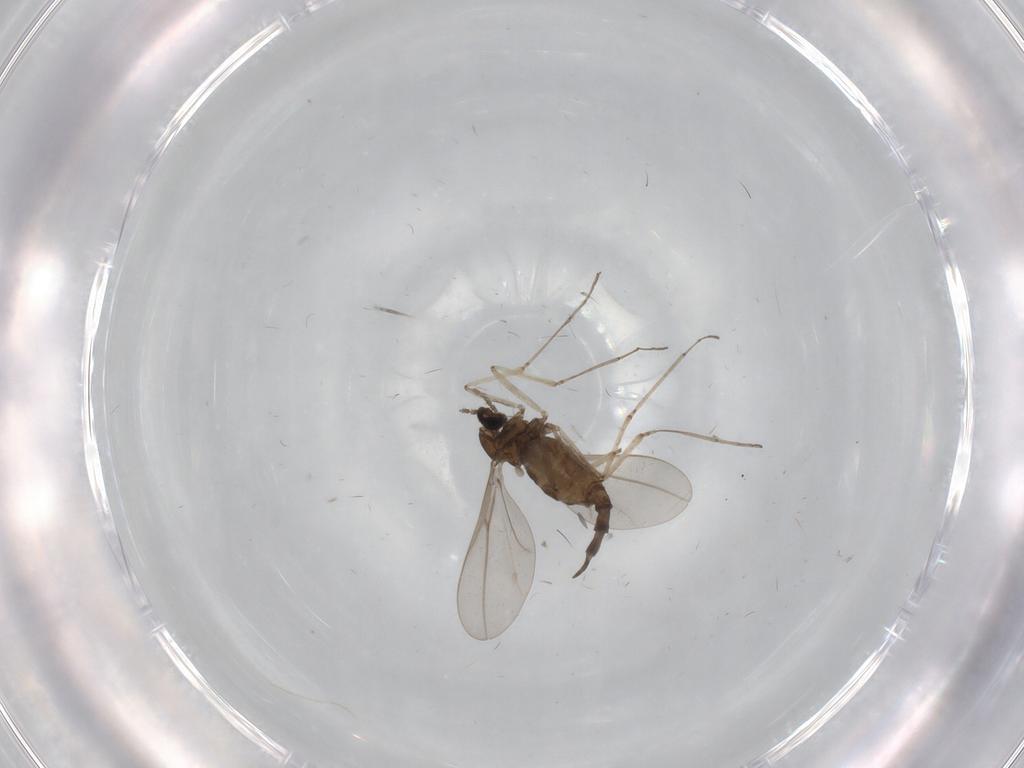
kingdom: Animalia
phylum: Arthropoda
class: Insecta
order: Diptera
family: Cecidomyiidae
